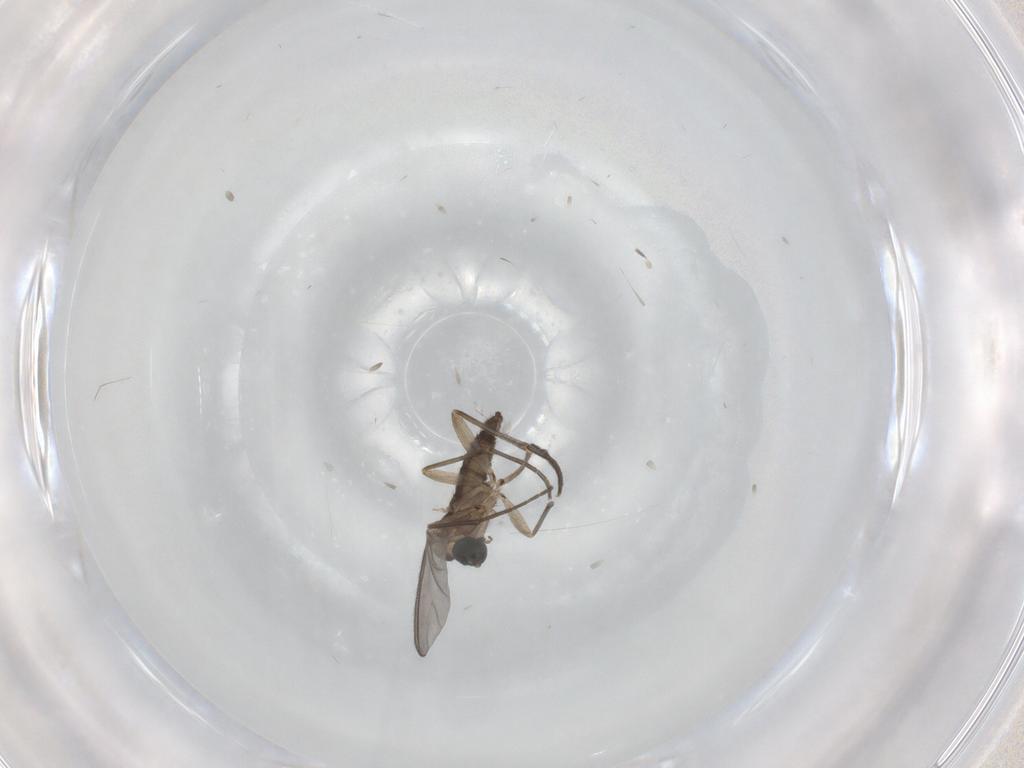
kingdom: Animalia
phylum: Arthropoda
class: Insecta
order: Diptera
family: Sciaridae
